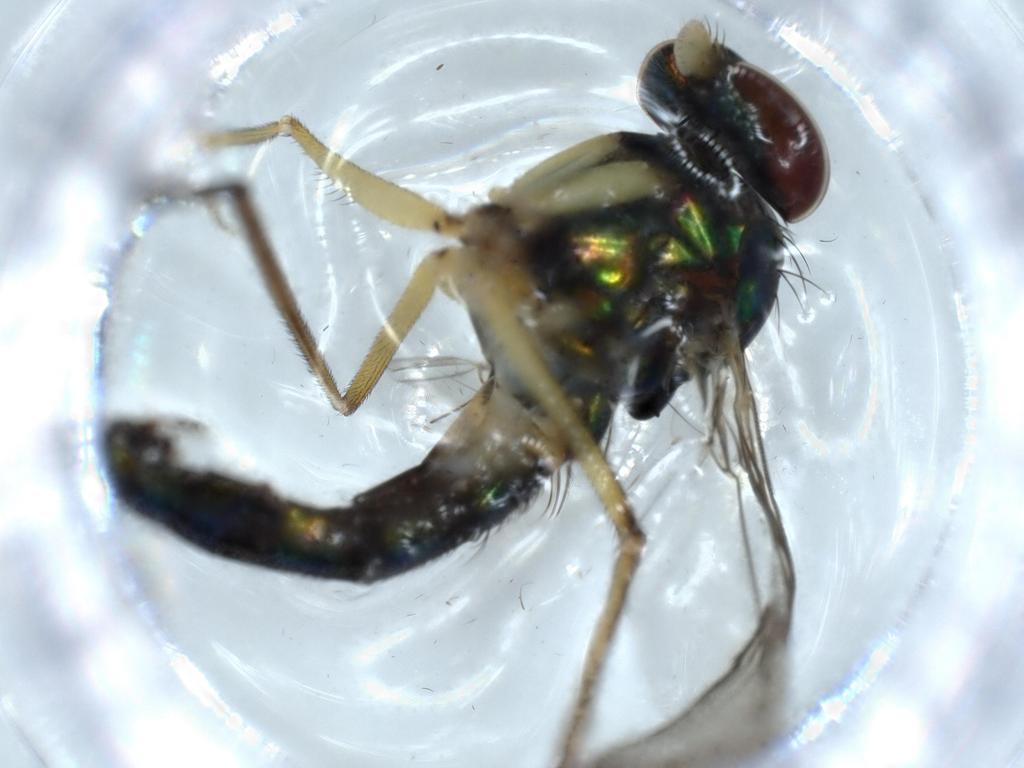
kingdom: Animalia
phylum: Arthropoda
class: Insecta
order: Diptera
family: Dolichopodidae
